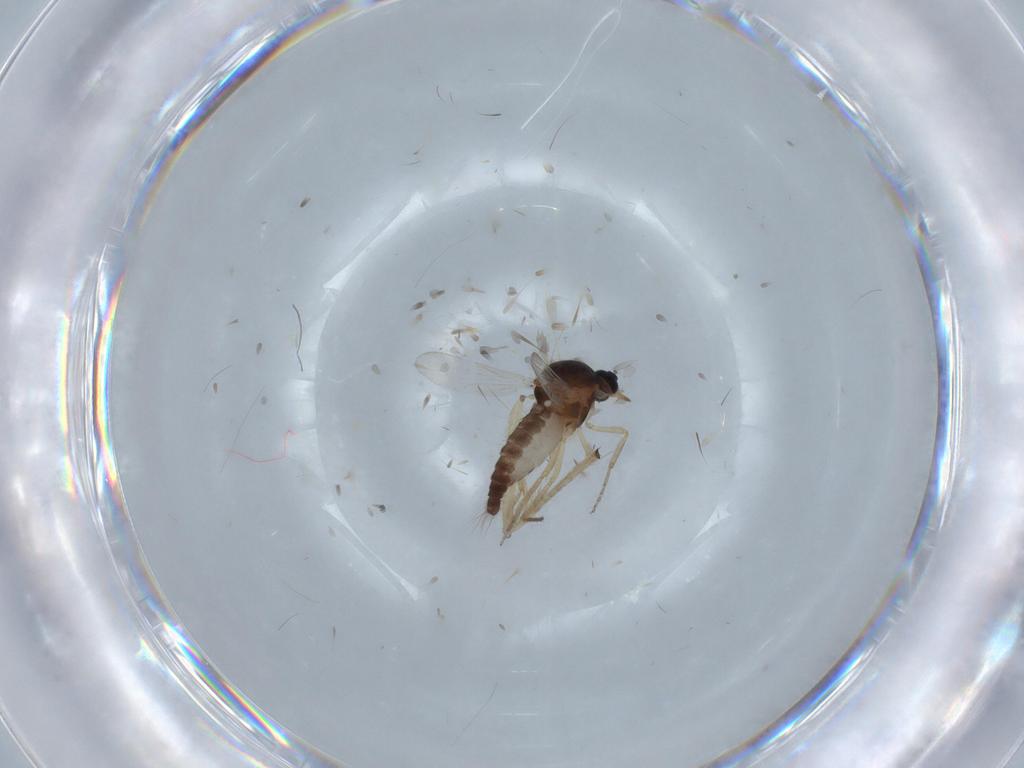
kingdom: Animalia
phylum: Arthropoda
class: Insecta
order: Diptera
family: Ceratopogonidae
